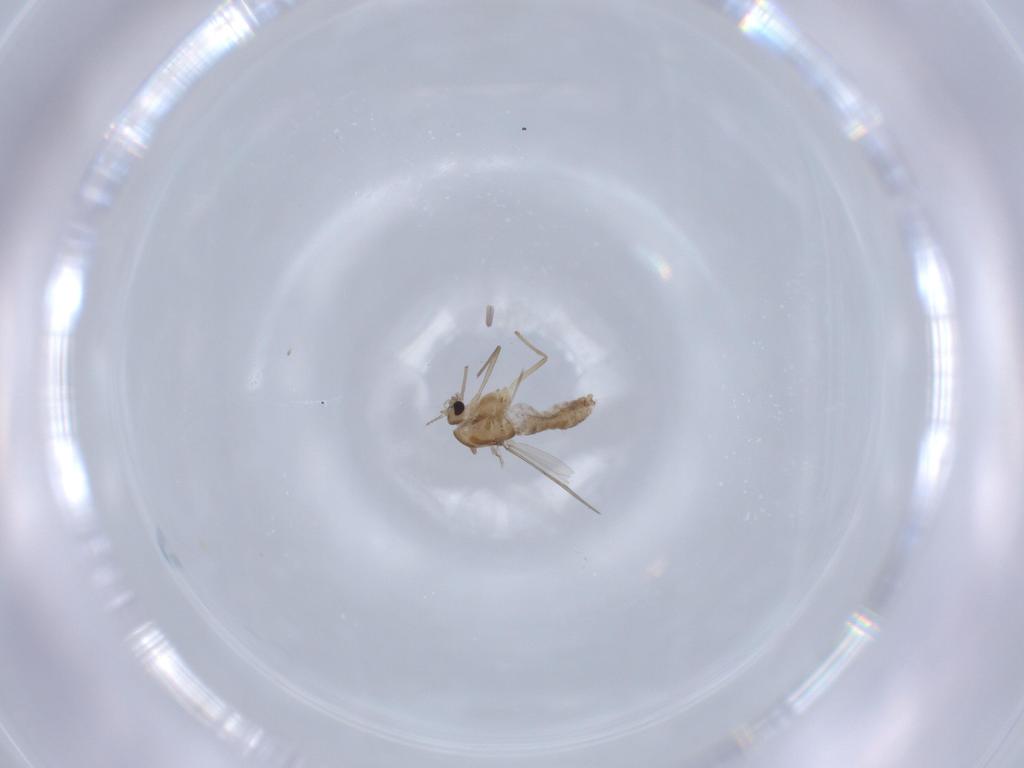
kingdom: Animalia
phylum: Arthropoda
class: Insecta
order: Diptera
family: Chironomidae
